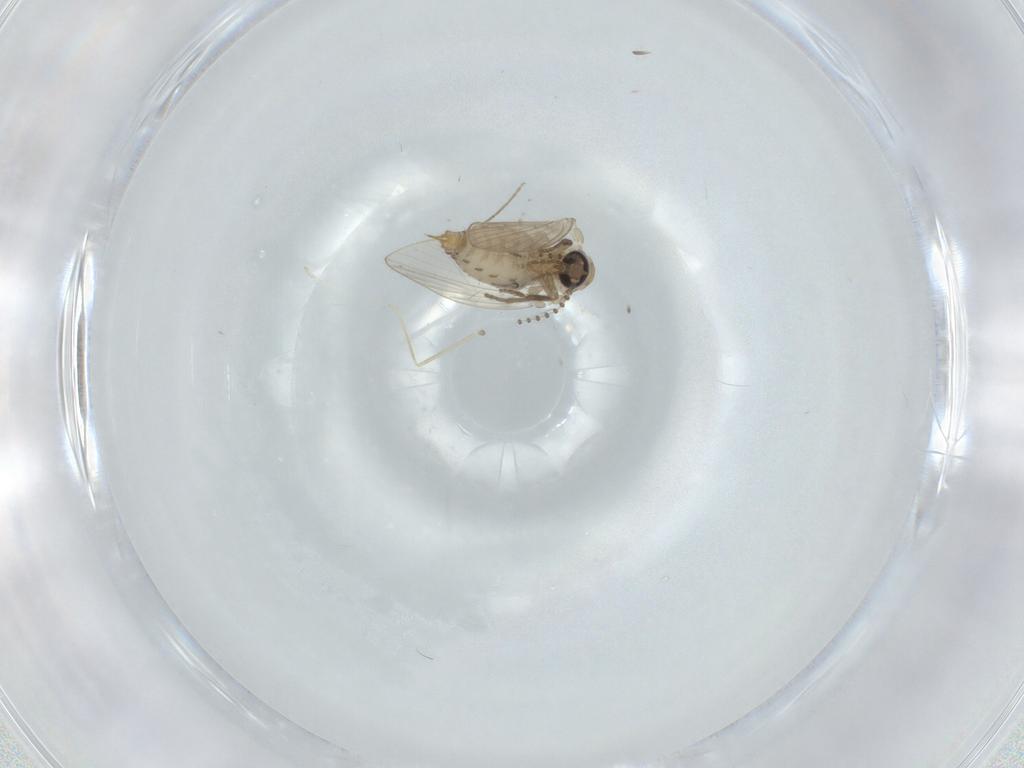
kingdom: Animalia
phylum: Arthropoda
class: Insecta
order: Diptera
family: Psychodidae
